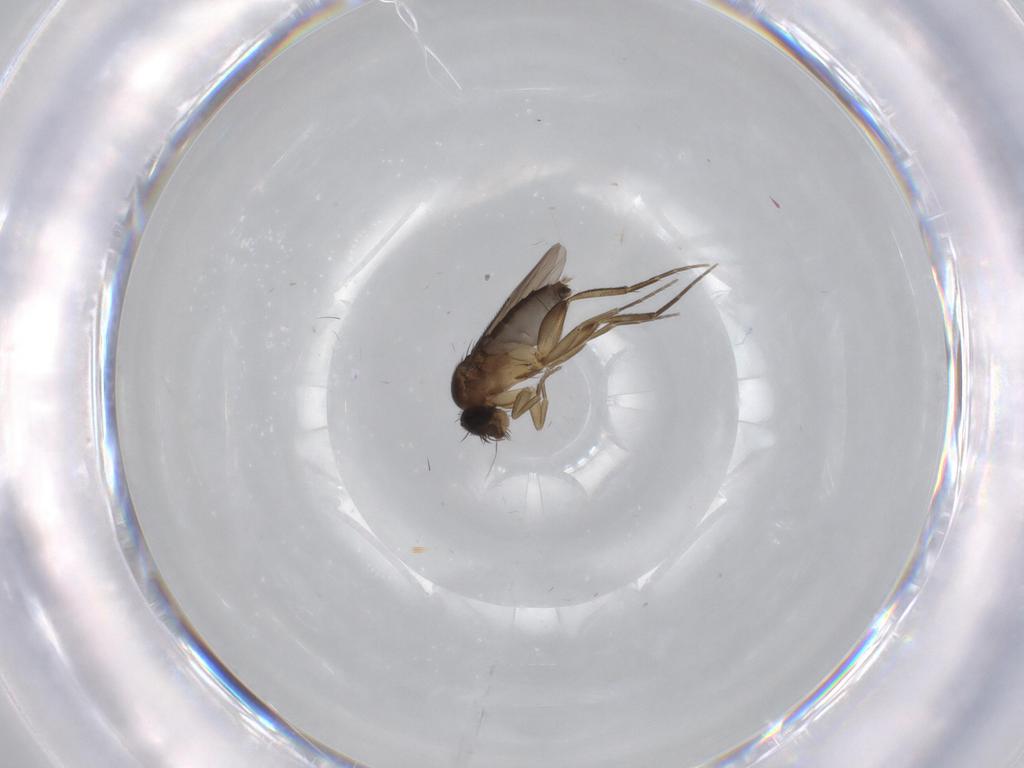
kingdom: Animalia
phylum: Arthropoda
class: Insecta
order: Diptera
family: Phoridae
